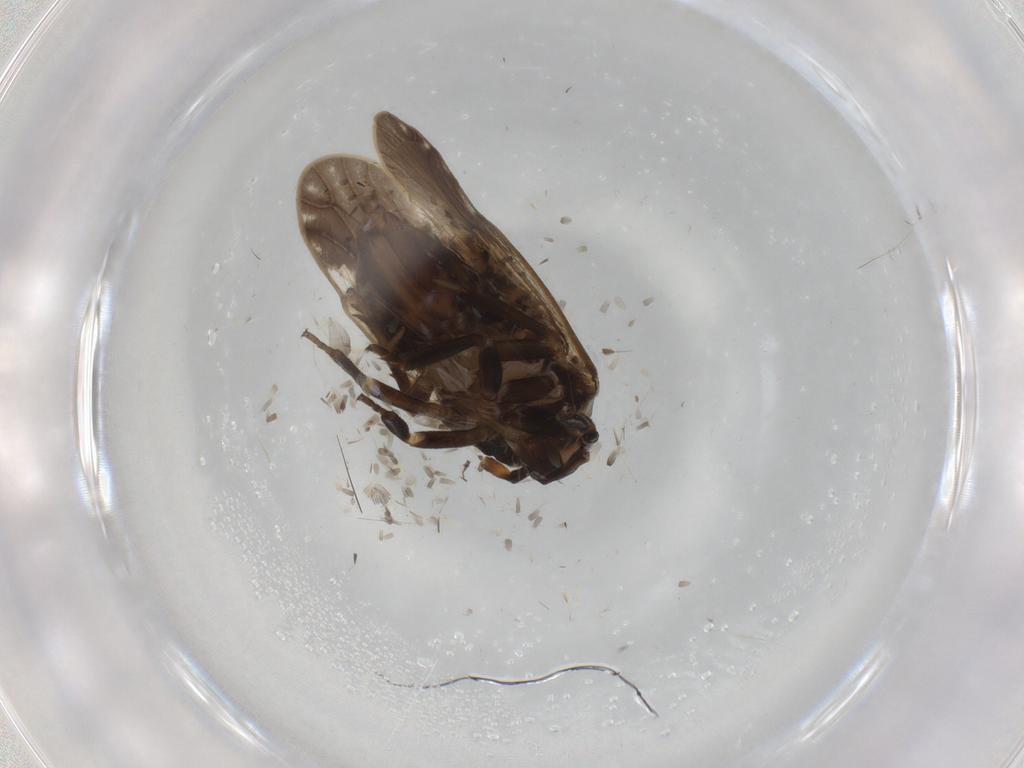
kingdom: Animalia
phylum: Arthropoda
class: Insecta
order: Hemiptera
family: Delphacidae
